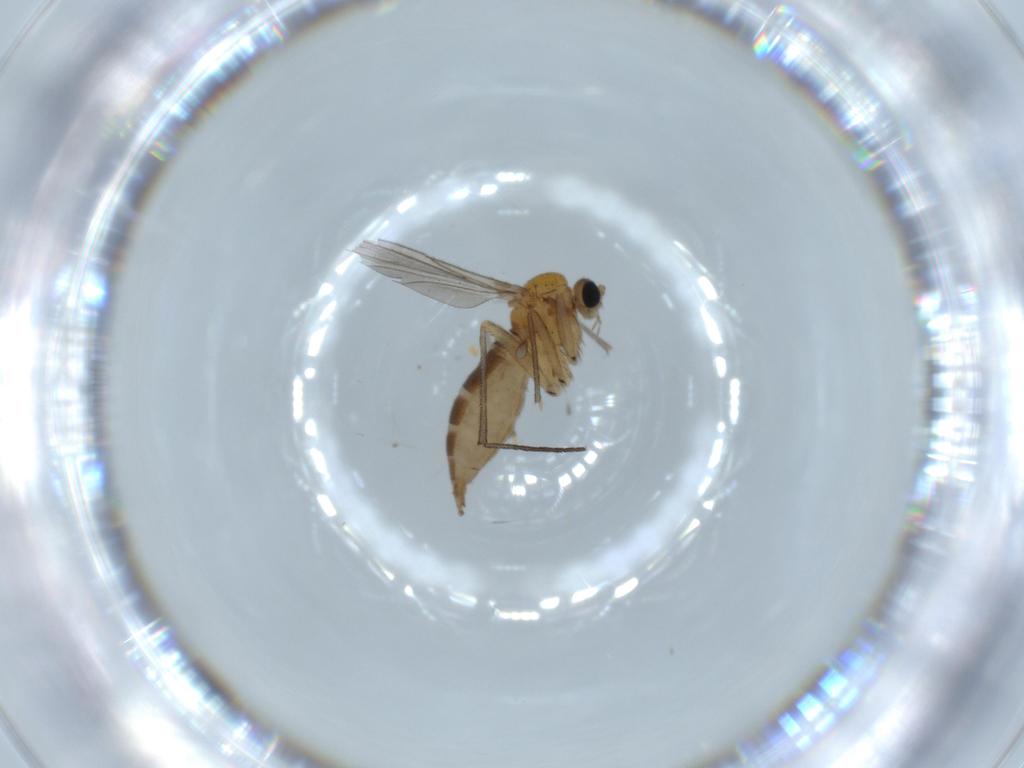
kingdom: Animalia
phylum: Arthropoda
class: Insecta
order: Diptera
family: Sciaridae
